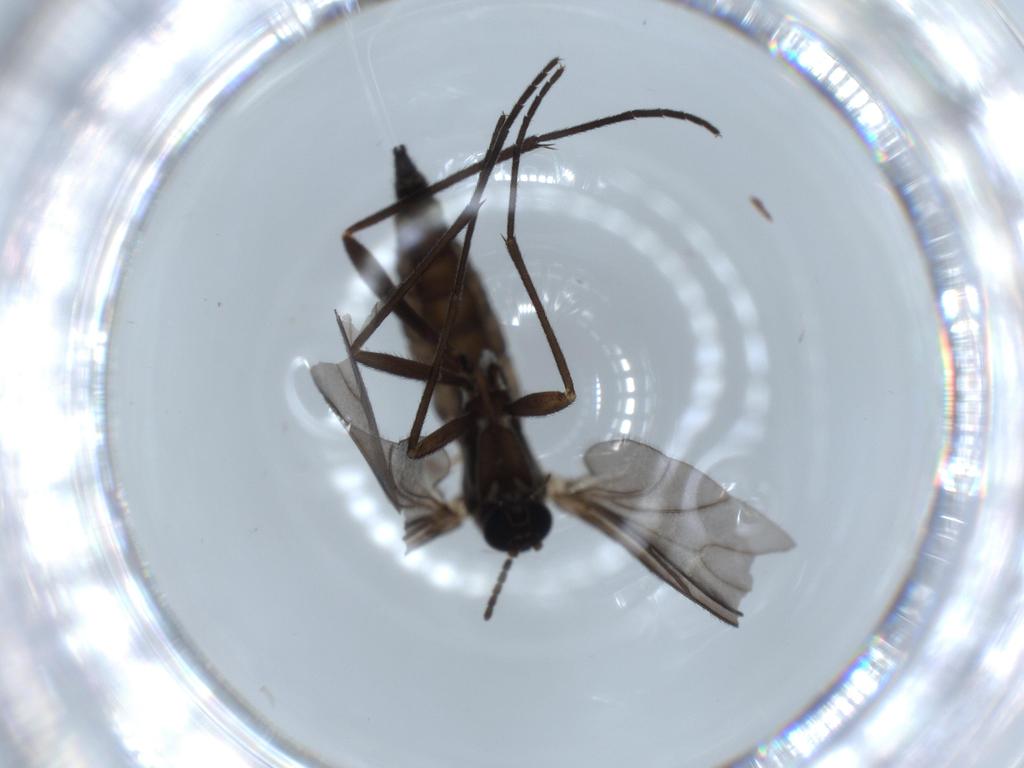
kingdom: Animalia
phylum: Arthropoda
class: Insecta
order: Diptera
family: Sciaridae
